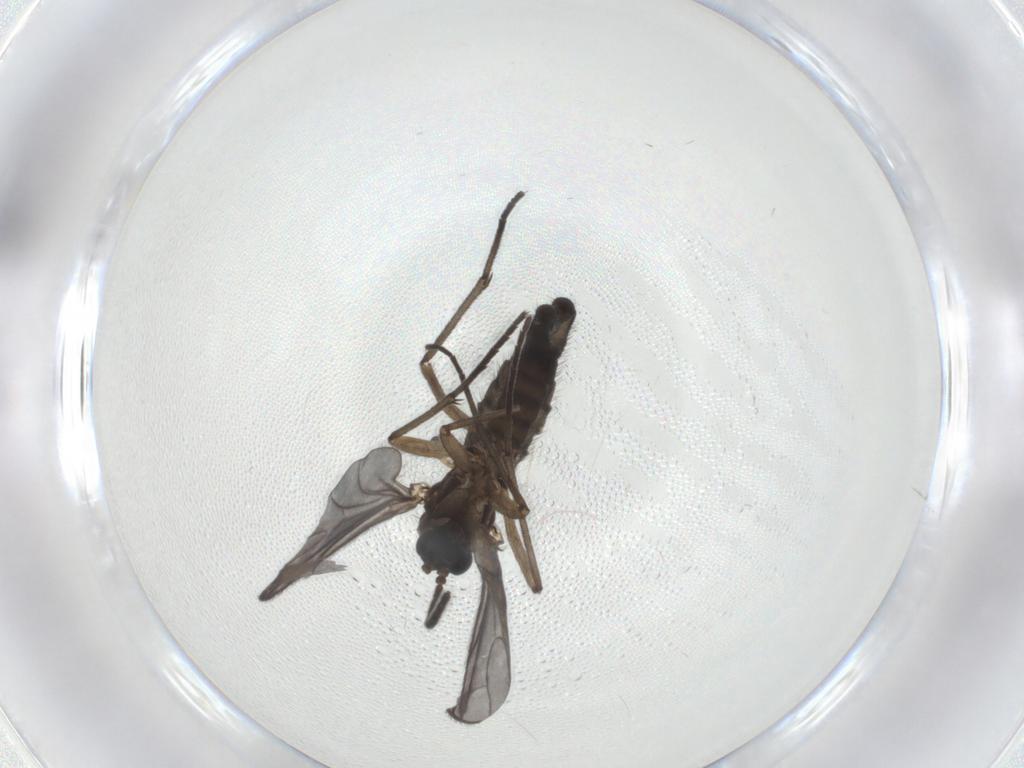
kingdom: Animalia
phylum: Arthropoda
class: Insecta
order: Diptera
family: Sciaridae
